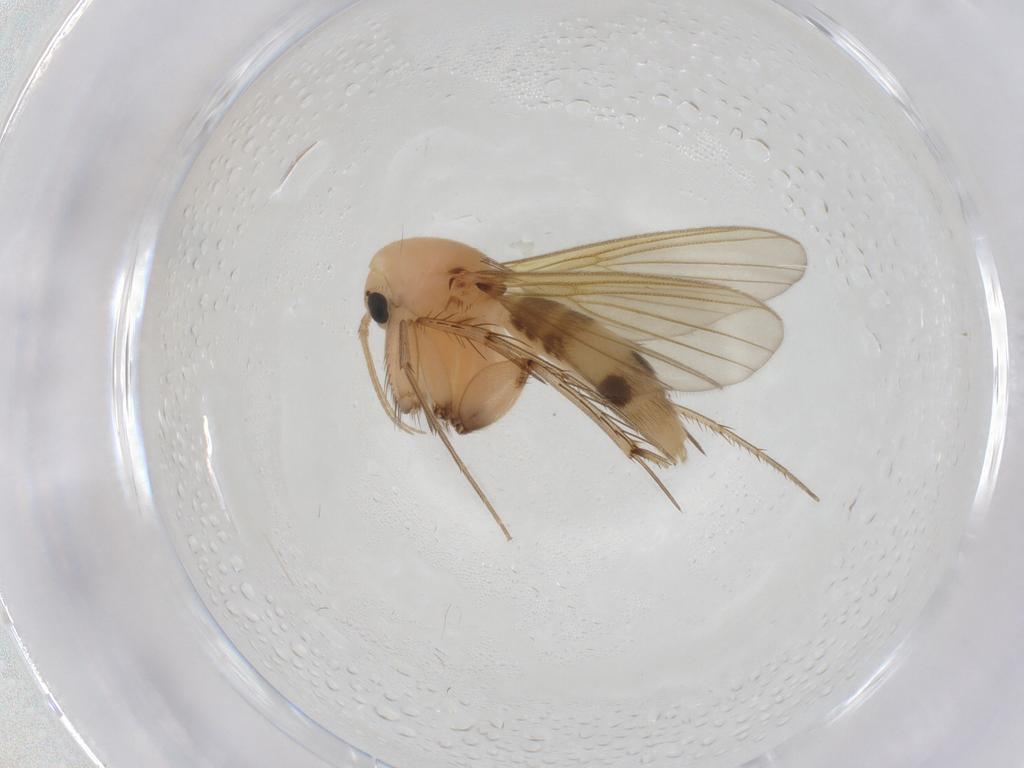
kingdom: Animalia
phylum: Arthropoda
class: Insecta
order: Diptera
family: Mycetophilidae
